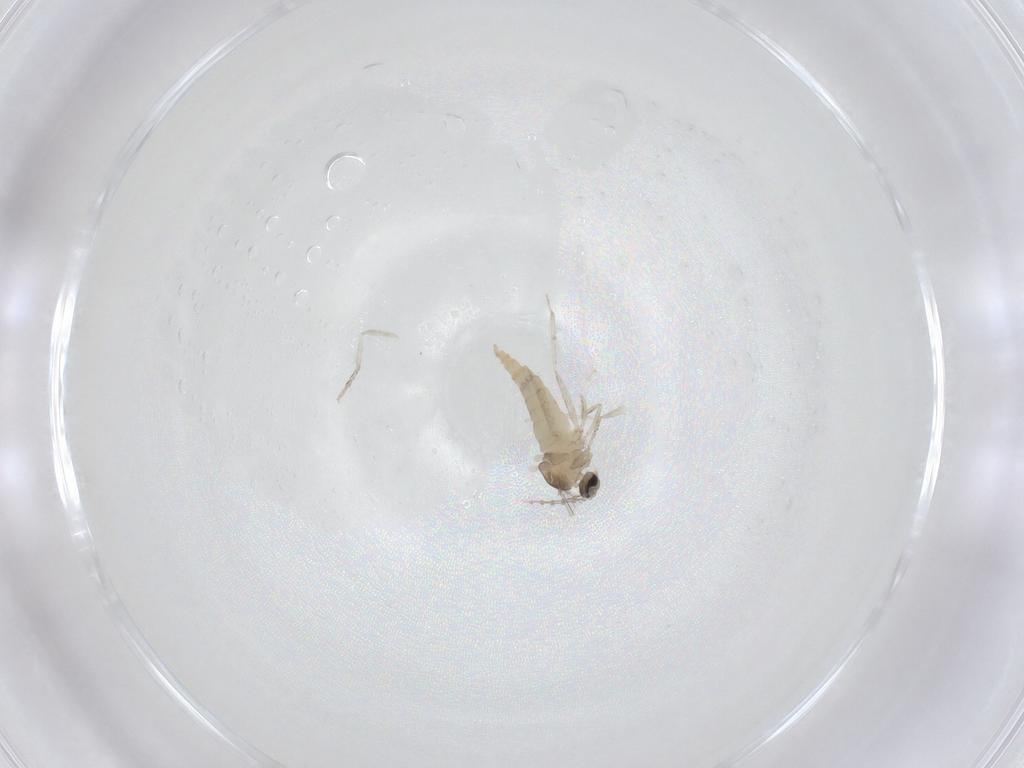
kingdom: Animalia
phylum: Arthropoda
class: Insecta
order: Diptera
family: Cecidomyiidae
